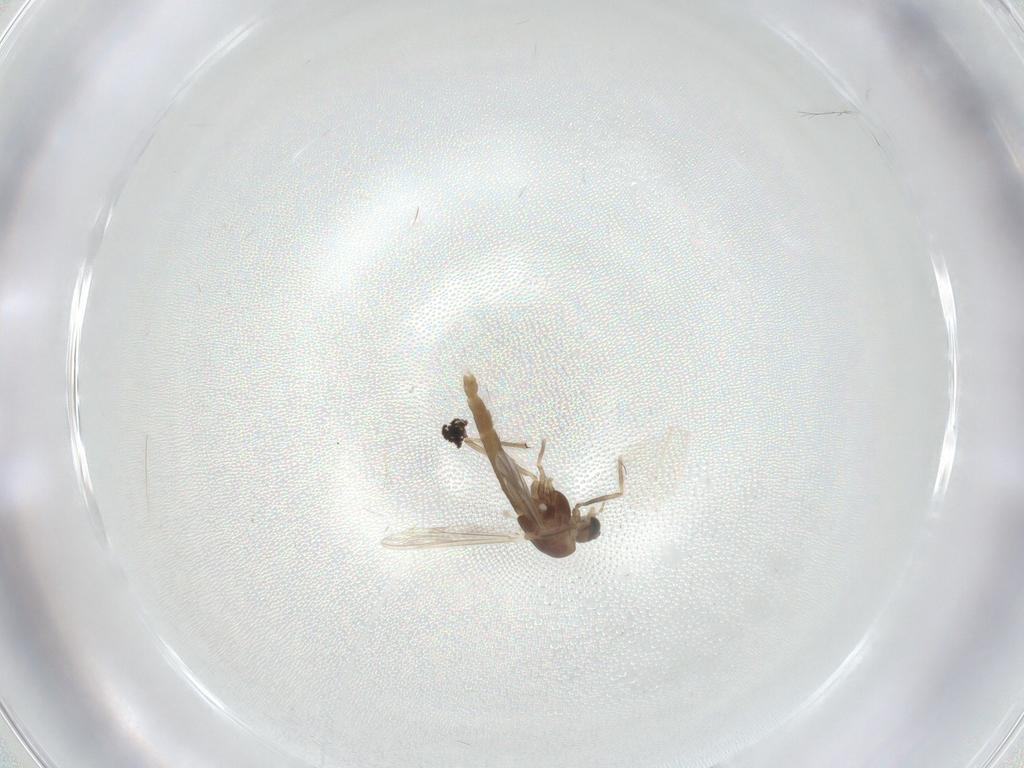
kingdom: Animalia
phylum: Arthropoda
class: Insecta
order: Diptera
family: Cecidomyiidae
